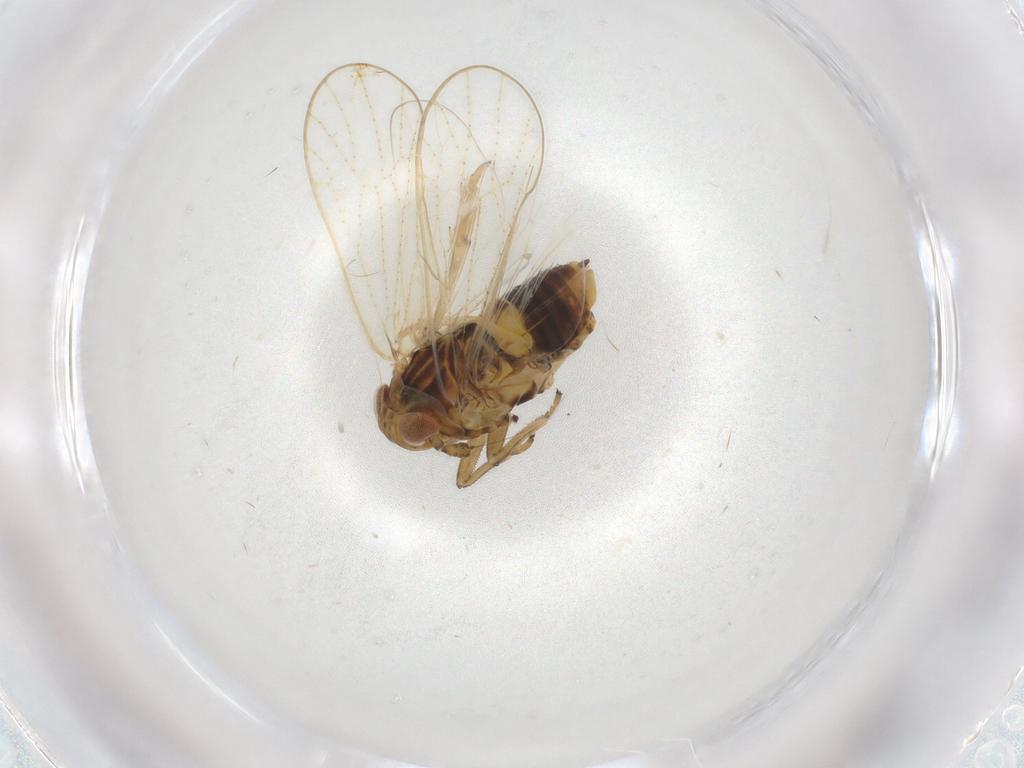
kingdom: Animalia
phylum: Arthropoda
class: Insecta
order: Hemiptera
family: Delphacidae
